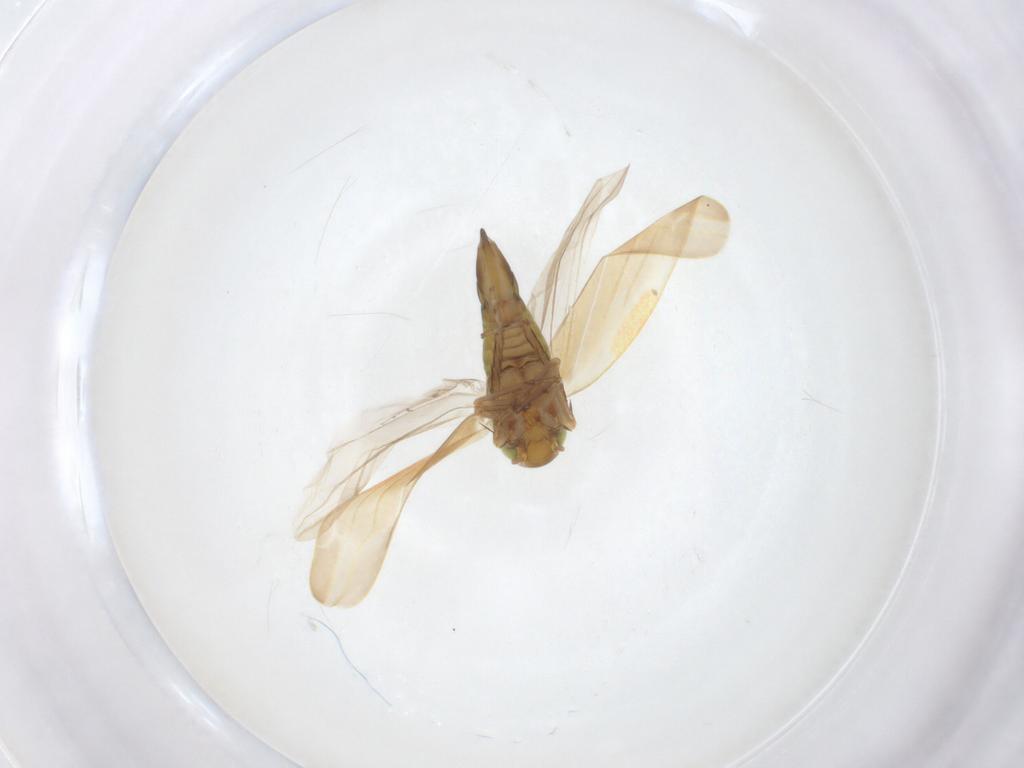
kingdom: Animalia
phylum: Arthropoda
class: Insecta
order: Hemiptera
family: Cicadellidae
